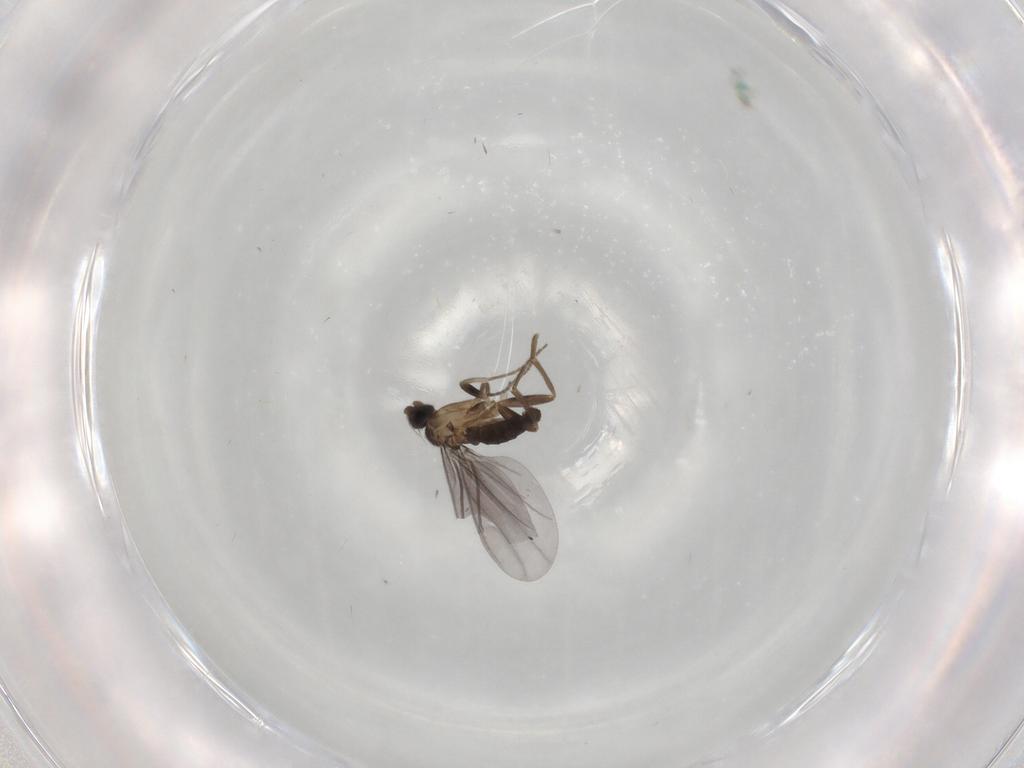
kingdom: Animalia
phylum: Arthropoda
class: Insecta
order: Diptera
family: Phoridae
